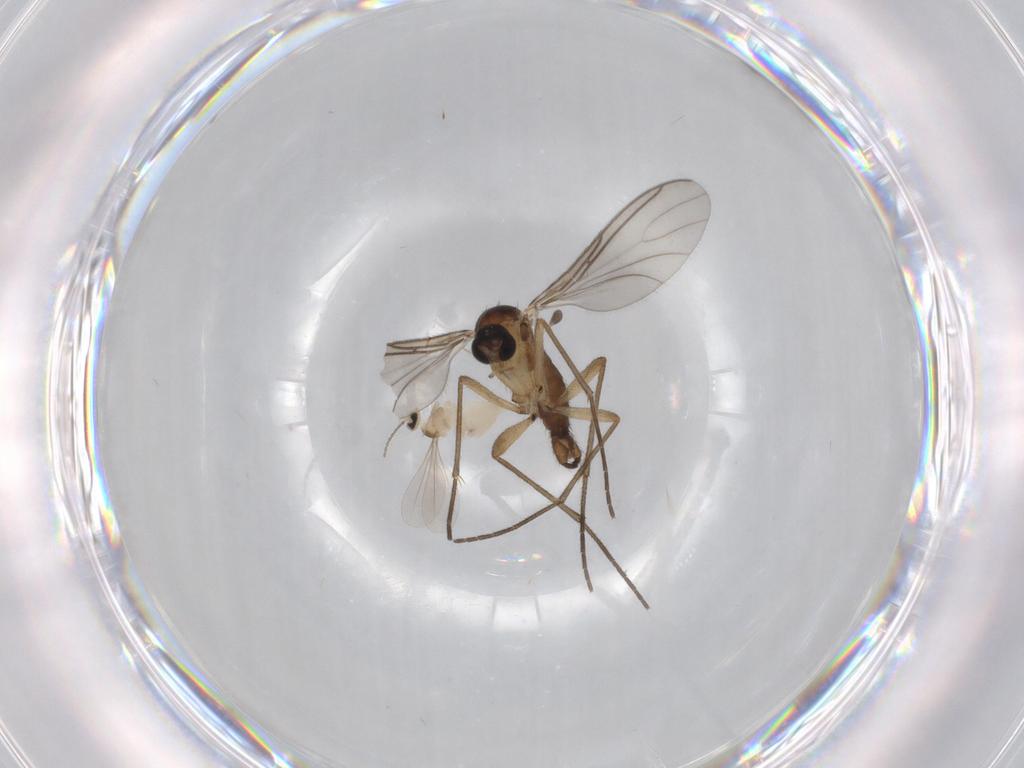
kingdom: Animalia
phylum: Arthropoda
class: Insecta
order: Diptera
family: Sciaridae
